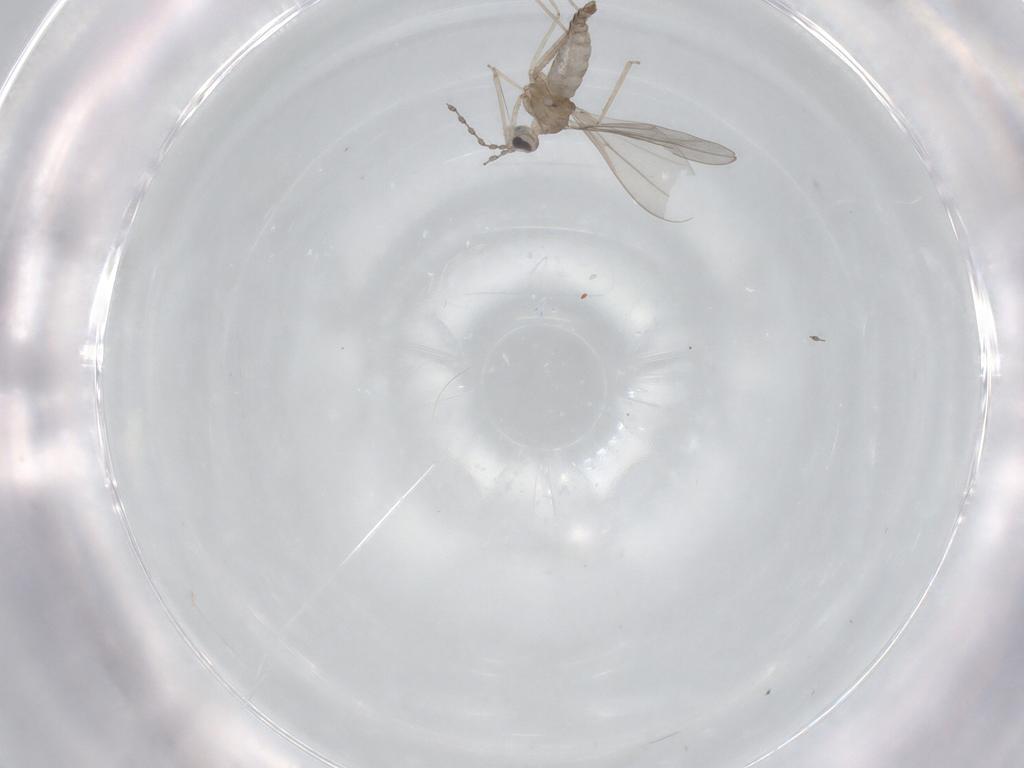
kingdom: Animalia
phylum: Arthropoda
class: Insecta
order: Diptera
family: Cecidomyiidae
